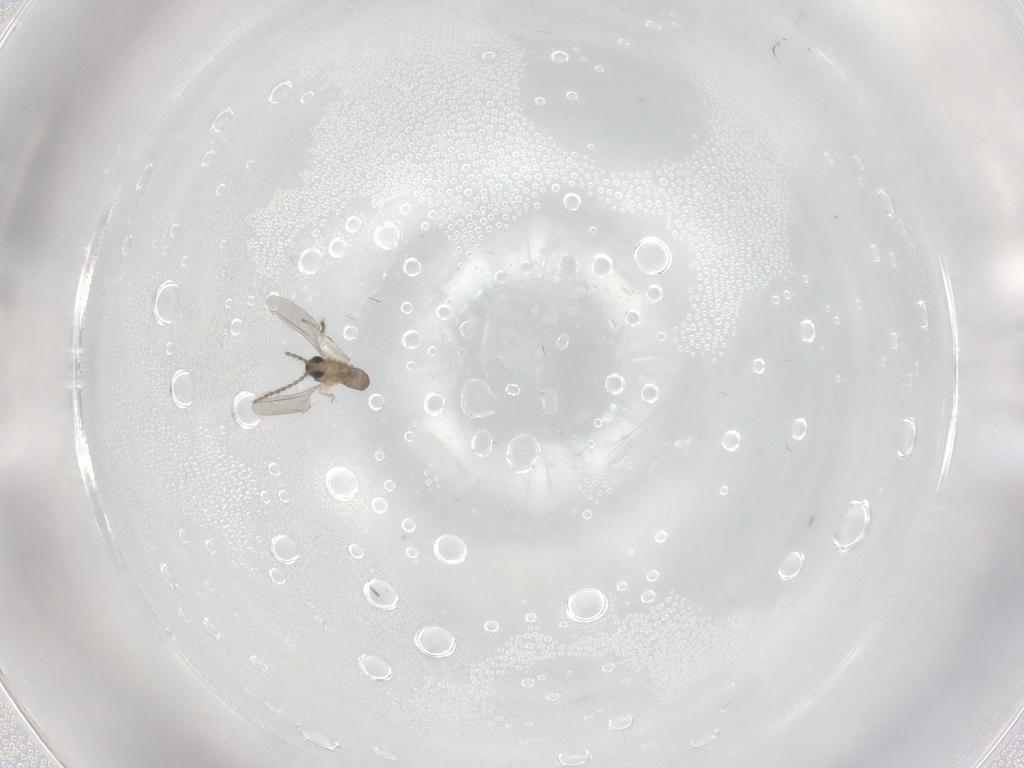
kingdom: Animalia
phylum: Arthropoda
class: Insecta
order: Diptera
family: Cecidomyiidae
